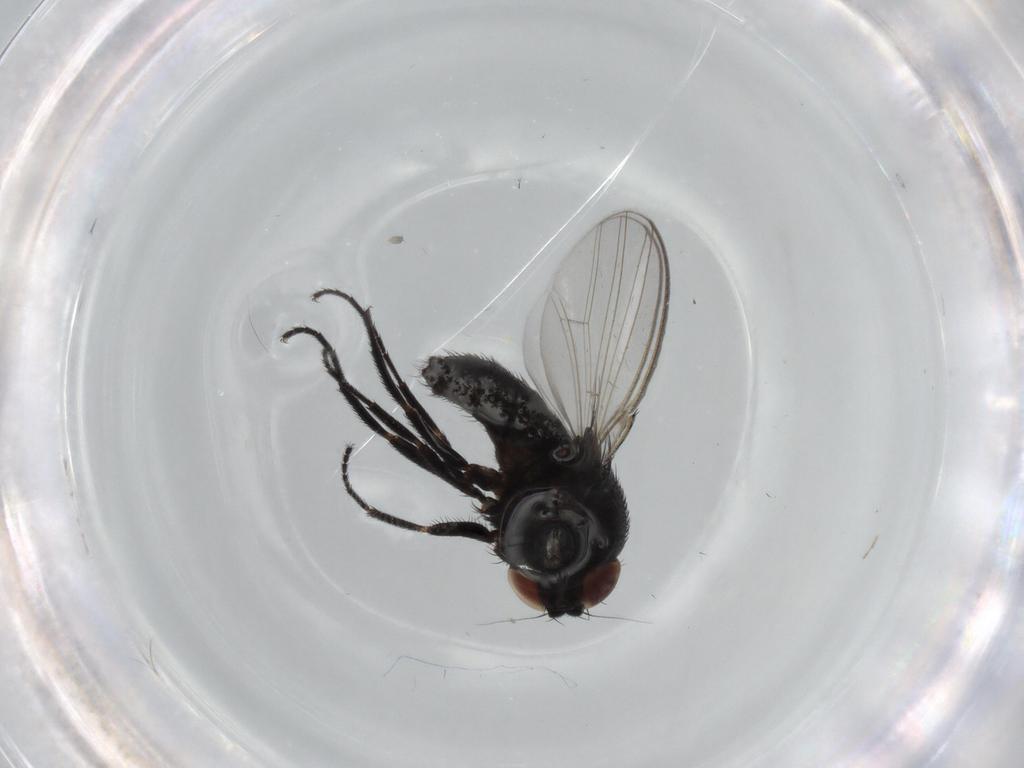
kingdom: Animalia
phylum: Arthropoda
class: Insecta
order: Diptera
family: Milichiidae
